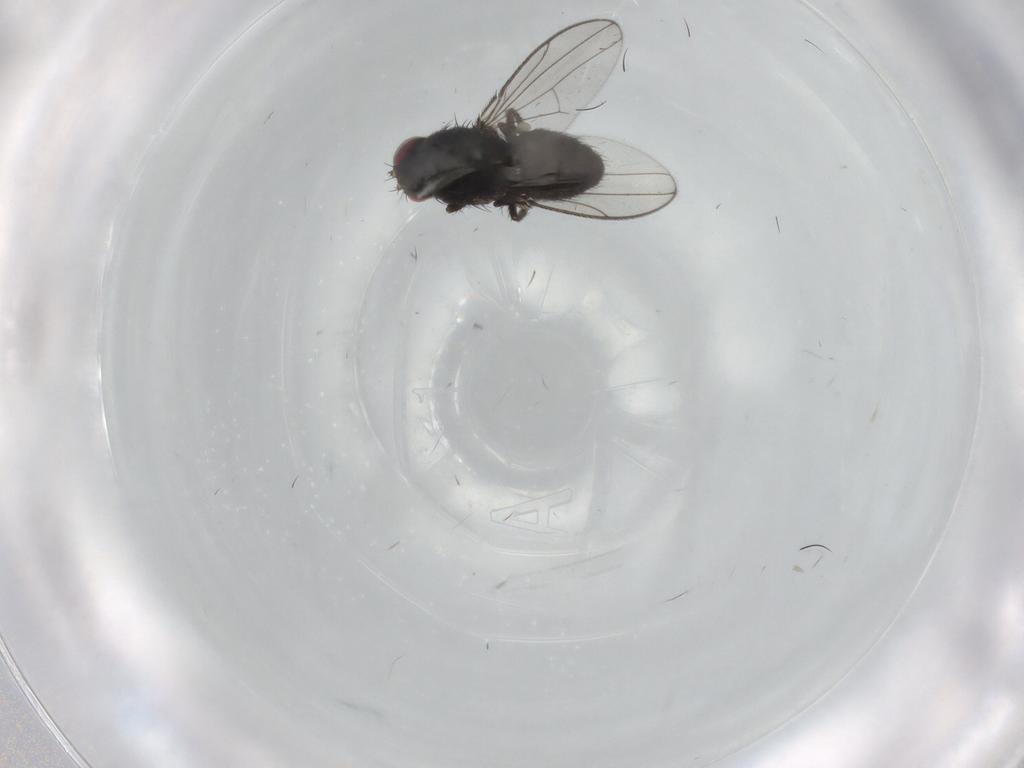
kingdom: Animalia
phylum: Arthropoda
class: Insecta
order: Diptera
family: Ephydridae
